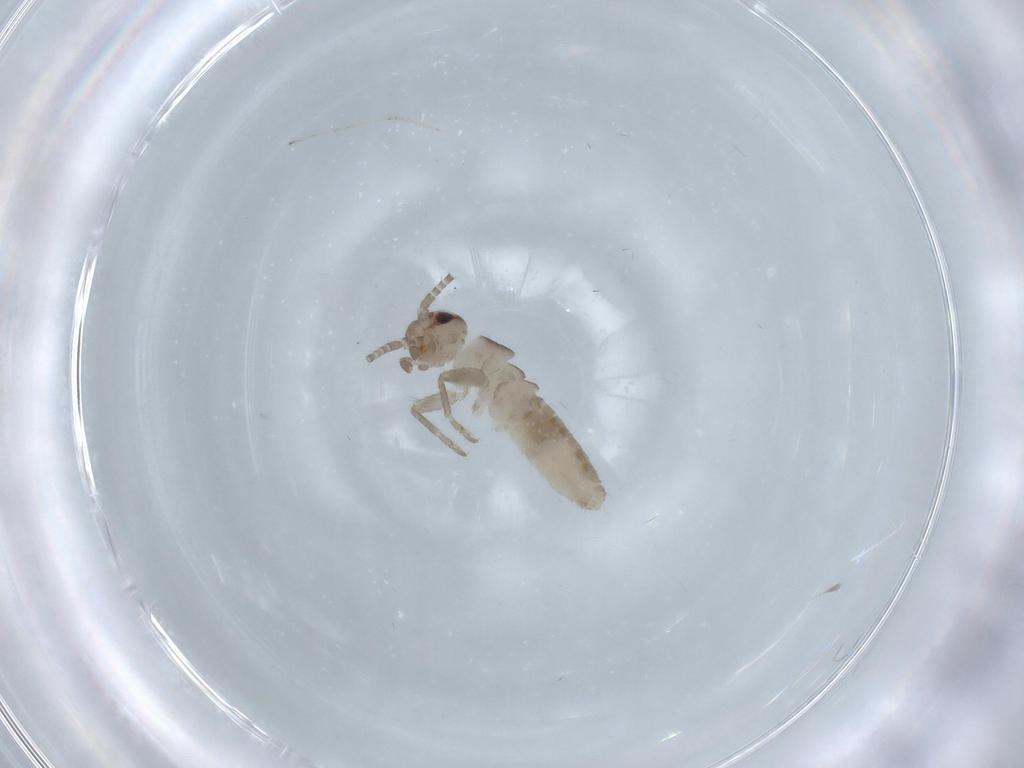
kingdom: Animalia
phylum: Arthropoda
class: Insecta
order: Orthoptera
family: Mogoplistidae
